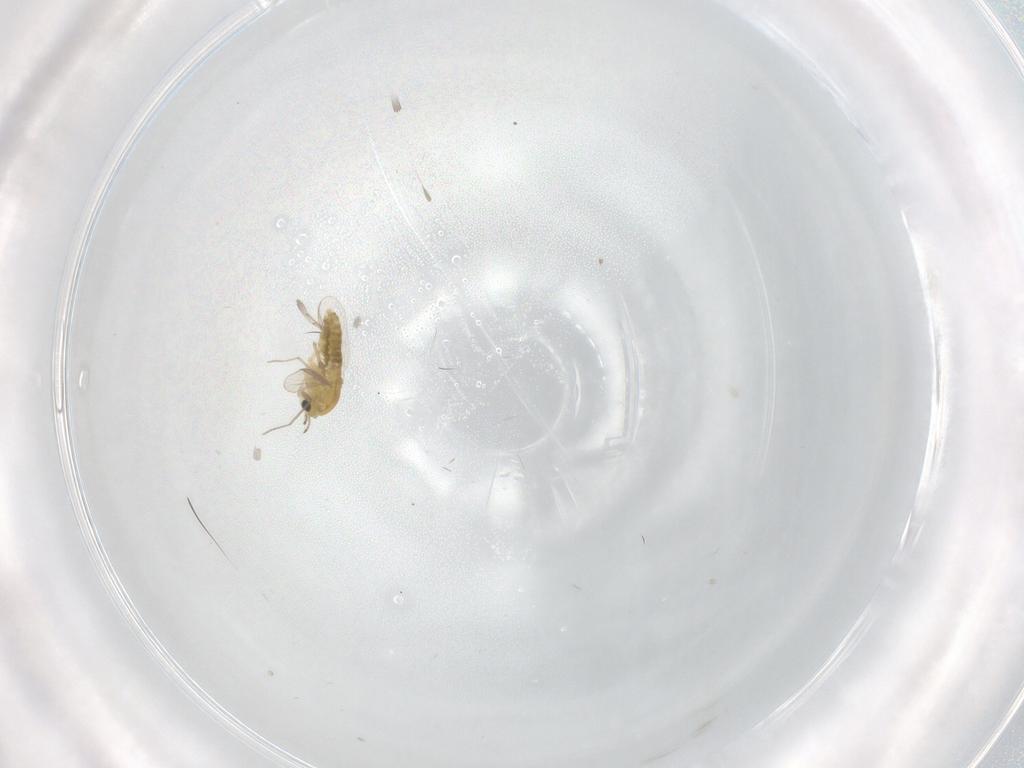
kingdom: Animalia
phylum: Arthropoda
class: Insecta
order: Diptera
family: Chironomidae
